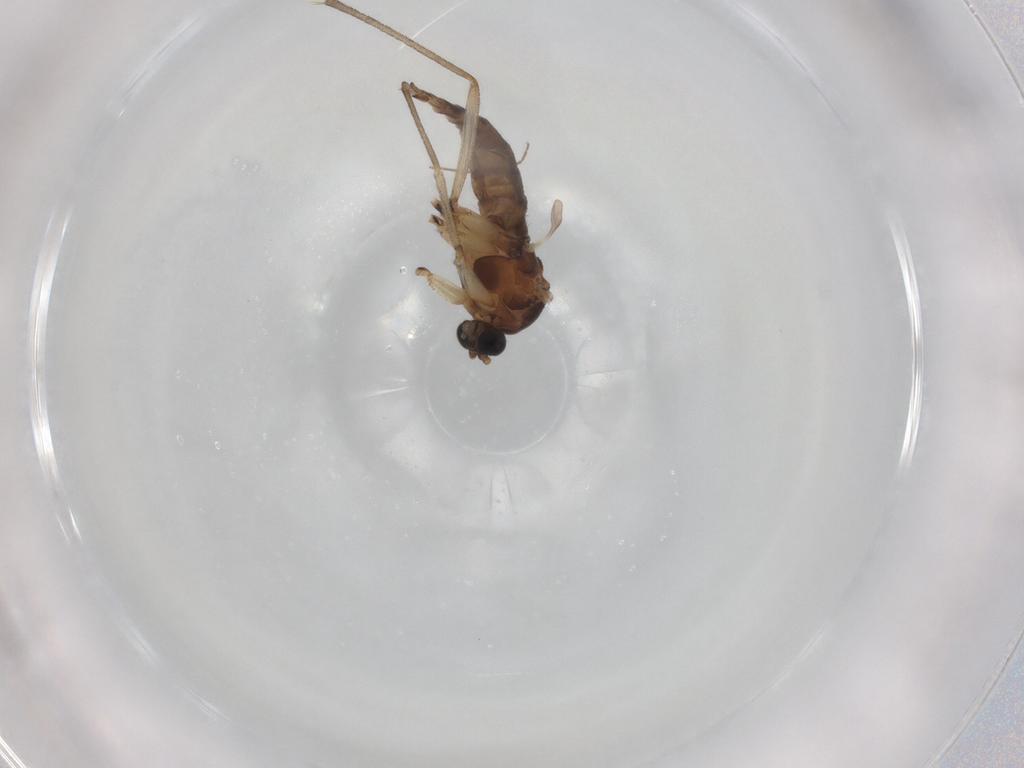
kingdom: Animalia
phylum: Arthropoda
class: Insecta
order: Diptera
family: Sciaridae
